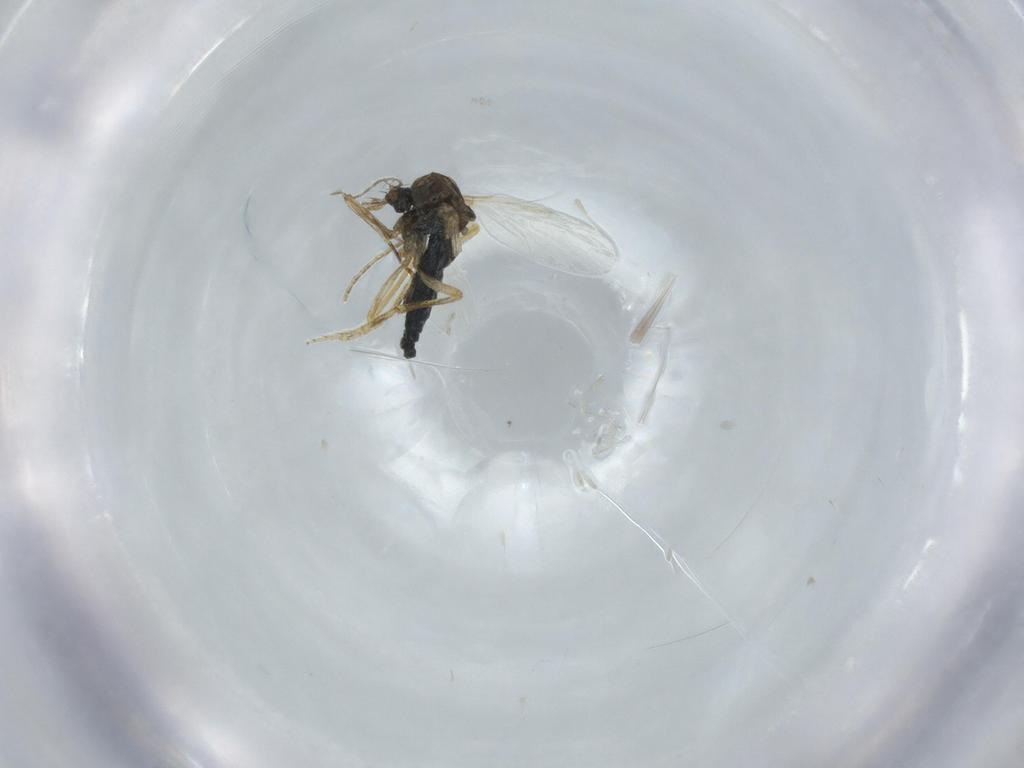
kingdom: Animalia
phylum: Arthropoda
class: Insecta
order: Diptera
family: Ceratopogonidae
